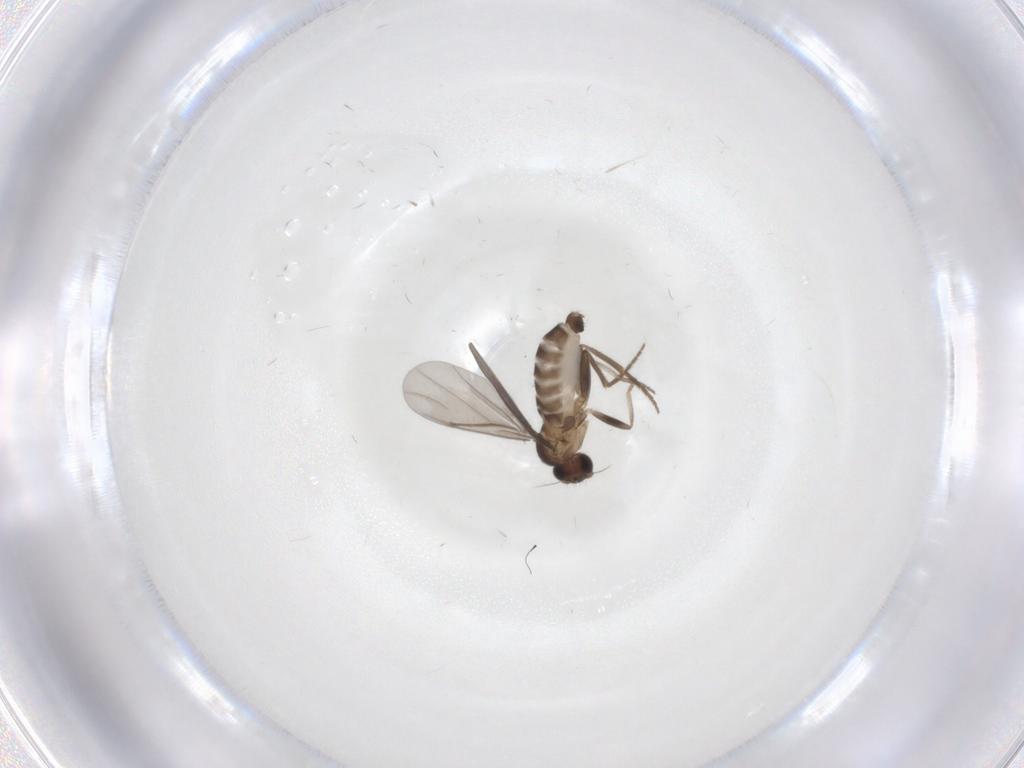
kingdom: Animalia
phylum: Arthropoda
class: Insecta
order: Diptera
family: Phoridae
